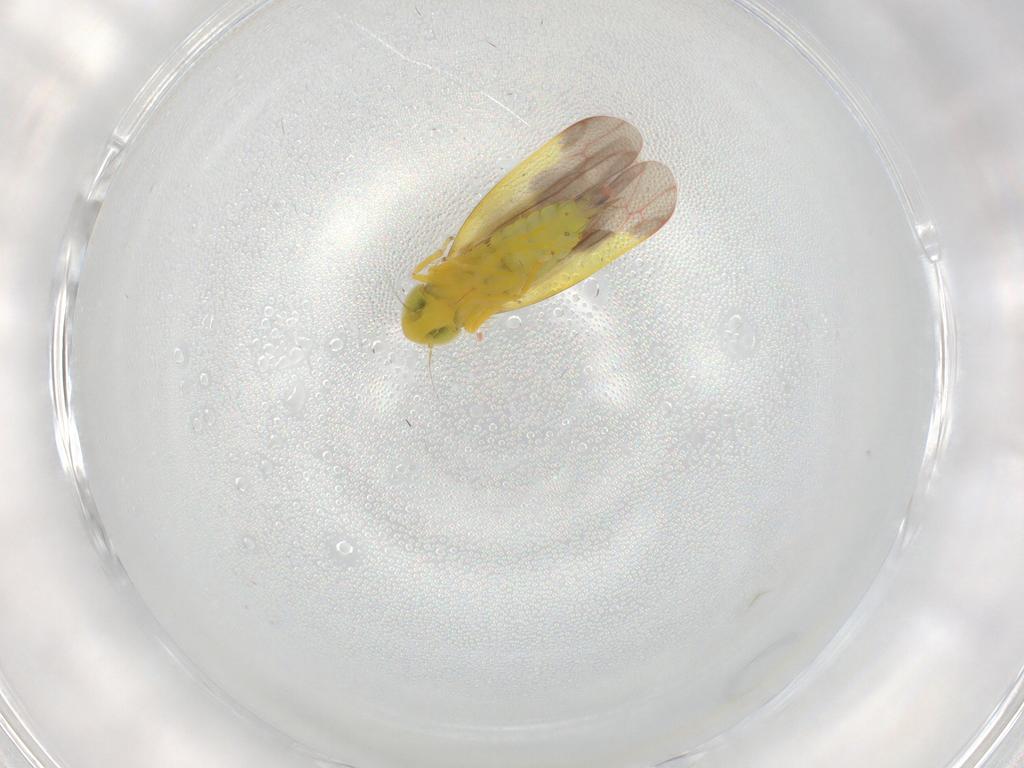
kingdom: Animalia
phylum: Arthropoda
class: Insecta
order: Hemiptera
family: Cicadellidae
